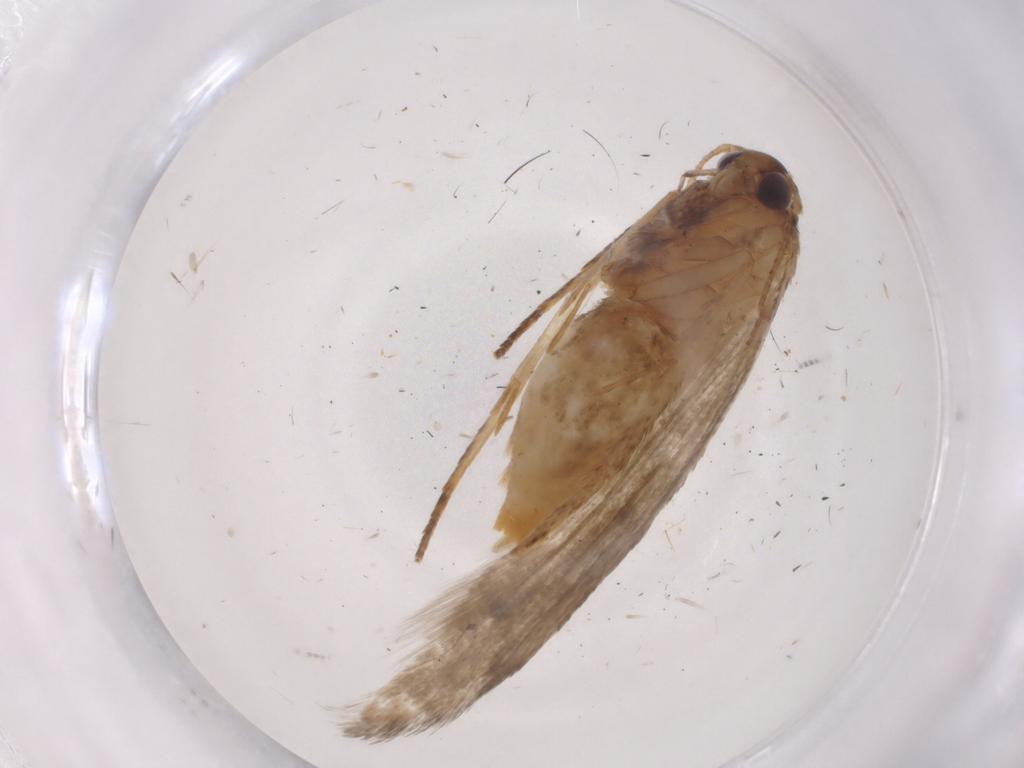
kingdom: Animalia
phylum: Arthropoda
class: Insecta
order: Lepidoptera
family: Coleophoridae
